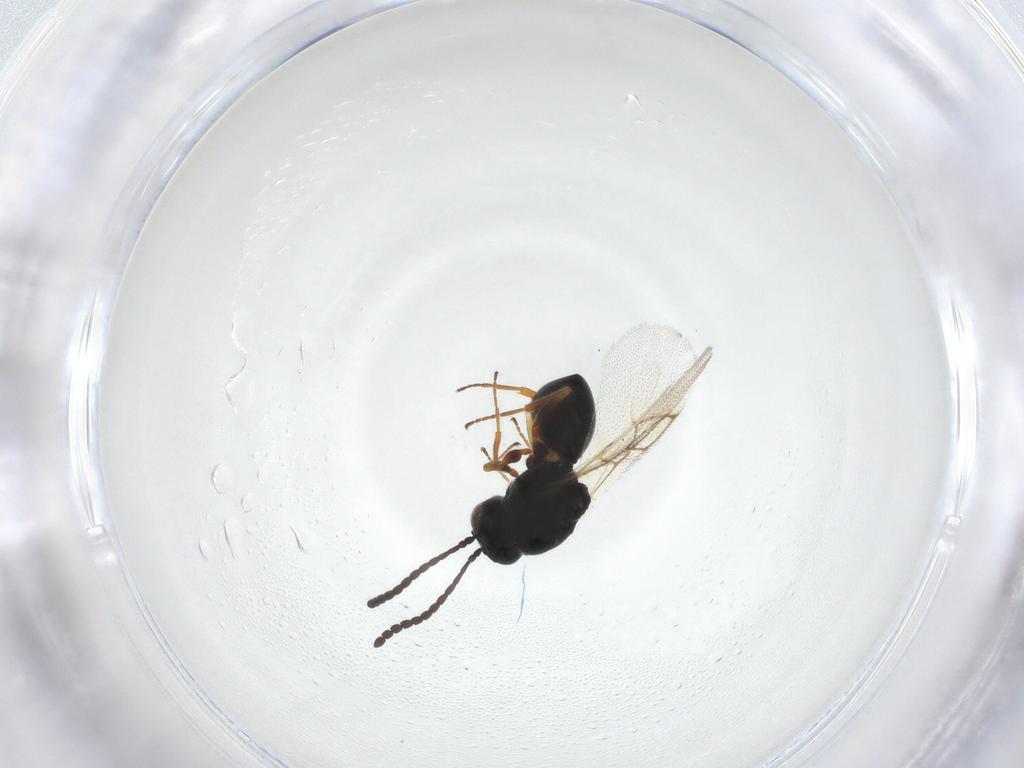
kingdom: Animalia
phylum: Arthropoda
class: Insecta
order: Hymenoptera
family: Figitidae
